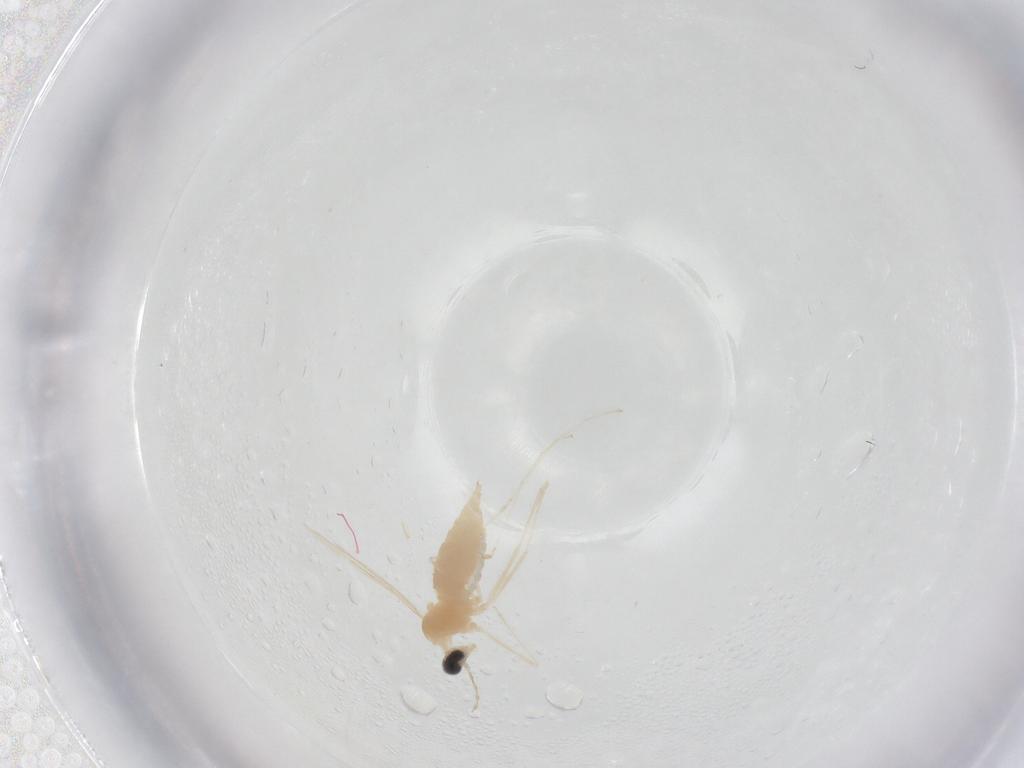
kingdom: Animalia
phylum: Arthropoda
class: Insecta
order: Diptera
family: Cecidomyiidae
